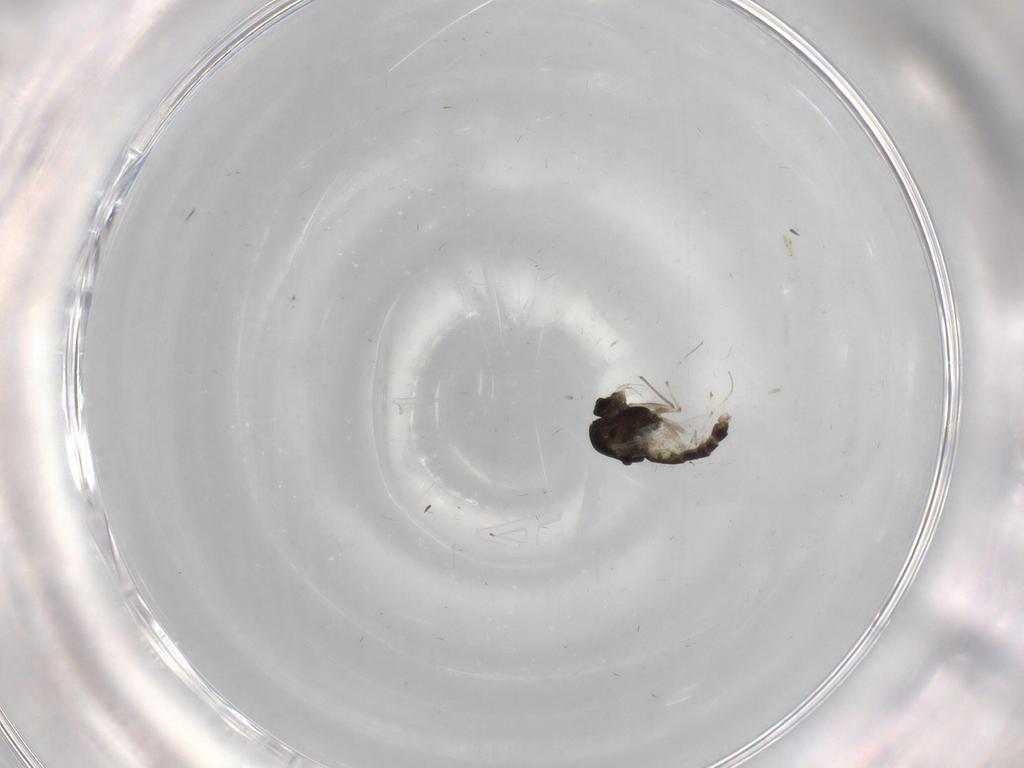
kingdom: Animalia
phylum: Arthropoda
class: Insecta
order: Diptera
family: Chironomidae
